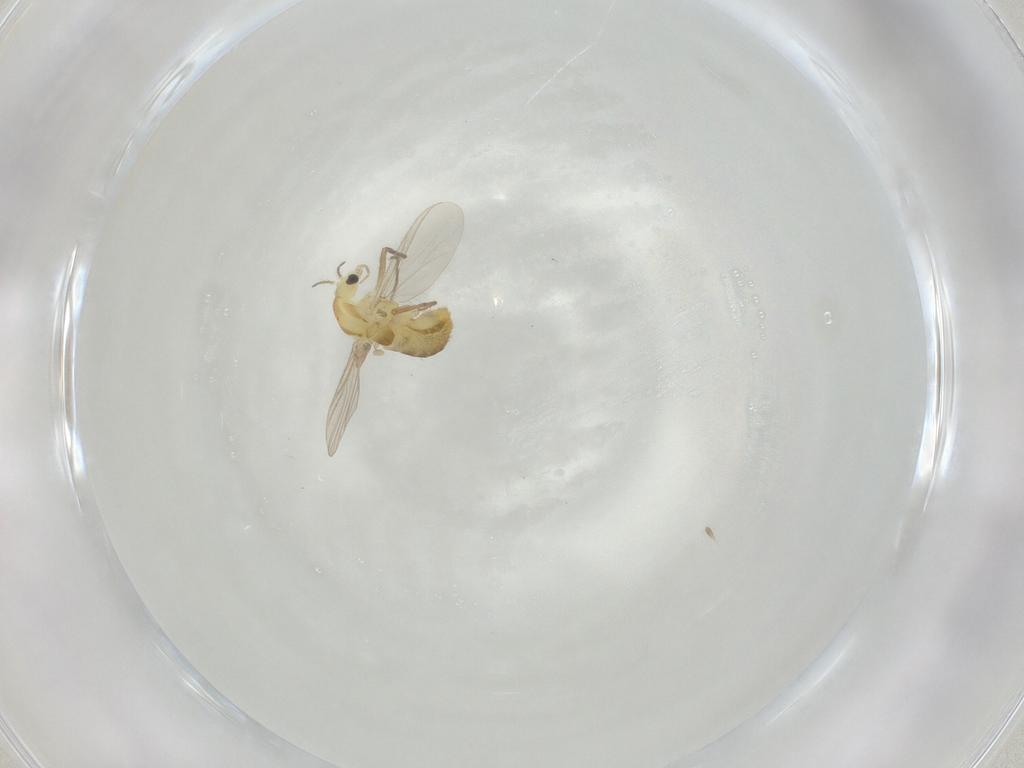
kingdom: Animalia
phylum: Arthropoda
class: Insecta
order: Diptera
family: Chironomidae
